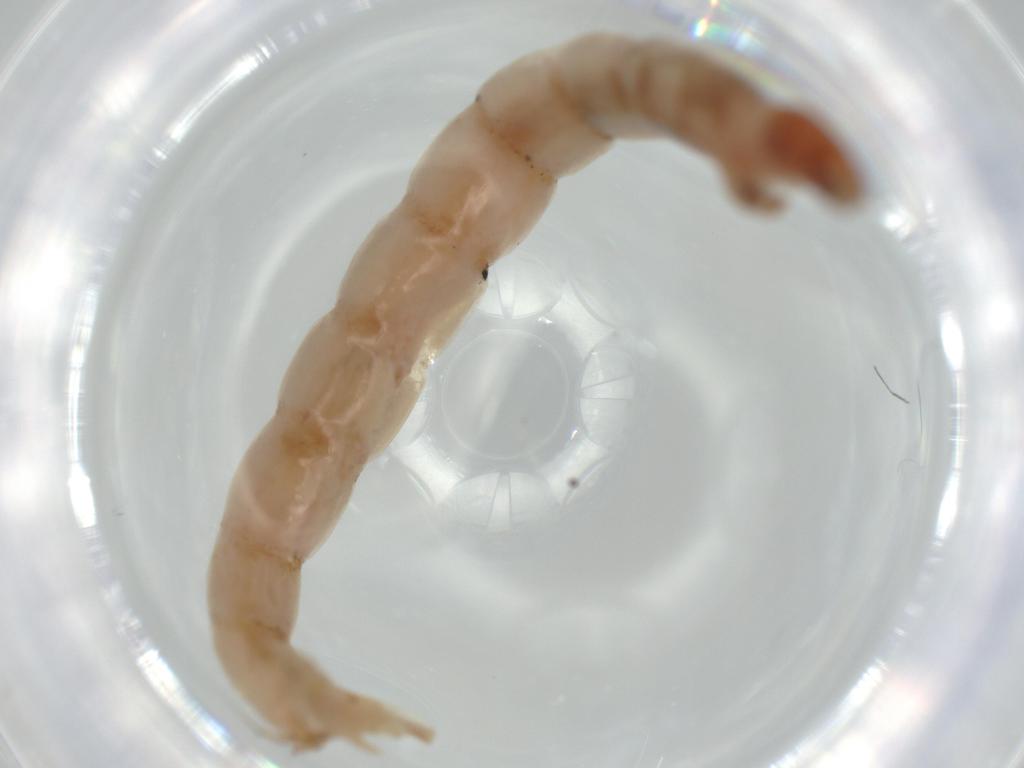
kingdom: Animalia
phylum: Arthropoda
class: Insecta
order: Diptera
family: Chironomidae
